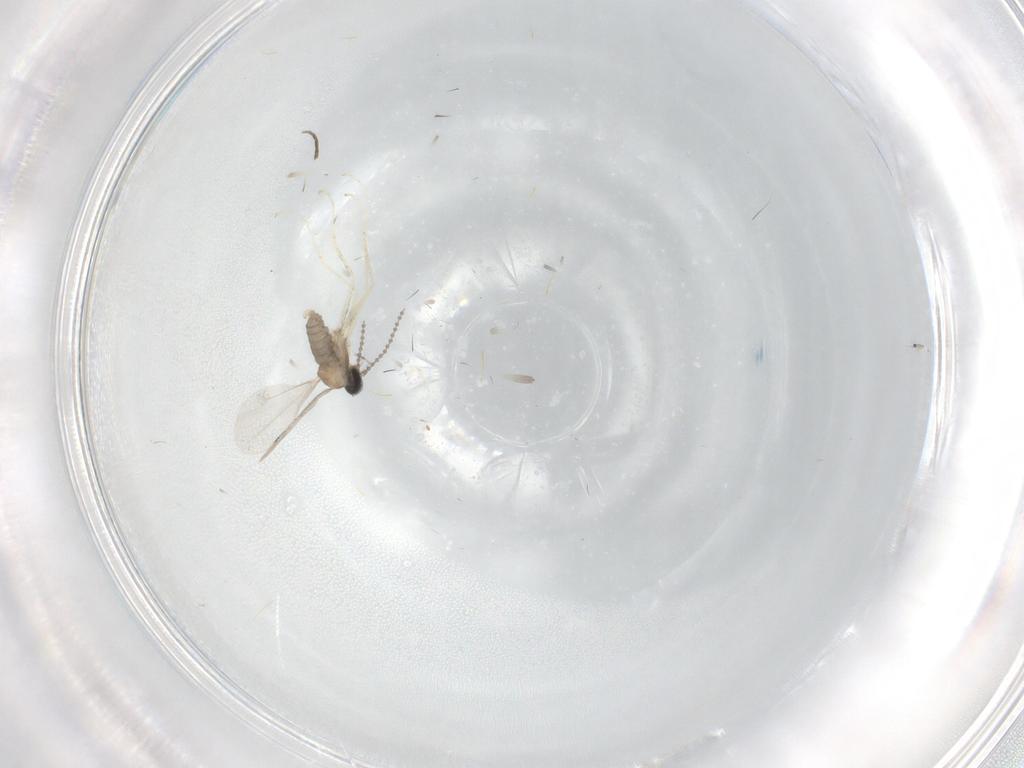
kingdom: Animalia
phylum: Arthropoda
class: Insecta
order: Diptera
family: Cecidomyiidae
